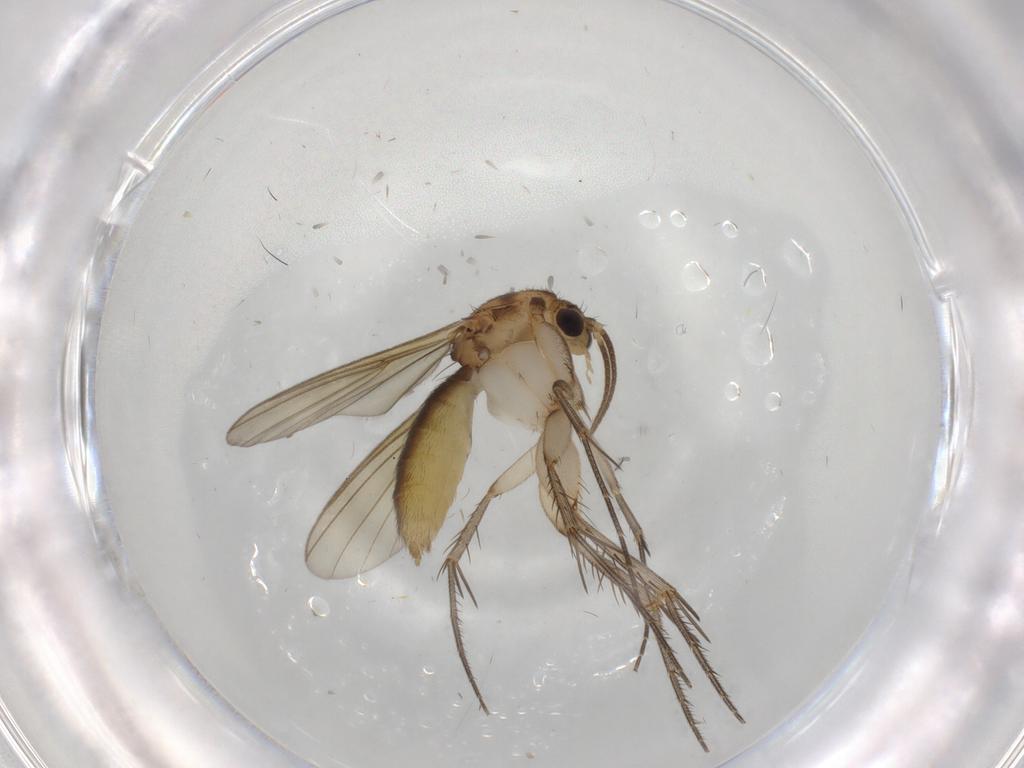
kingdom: Animalia
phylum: Arthropoda
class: Insecta
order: Diptera
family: Mycetophilidae
